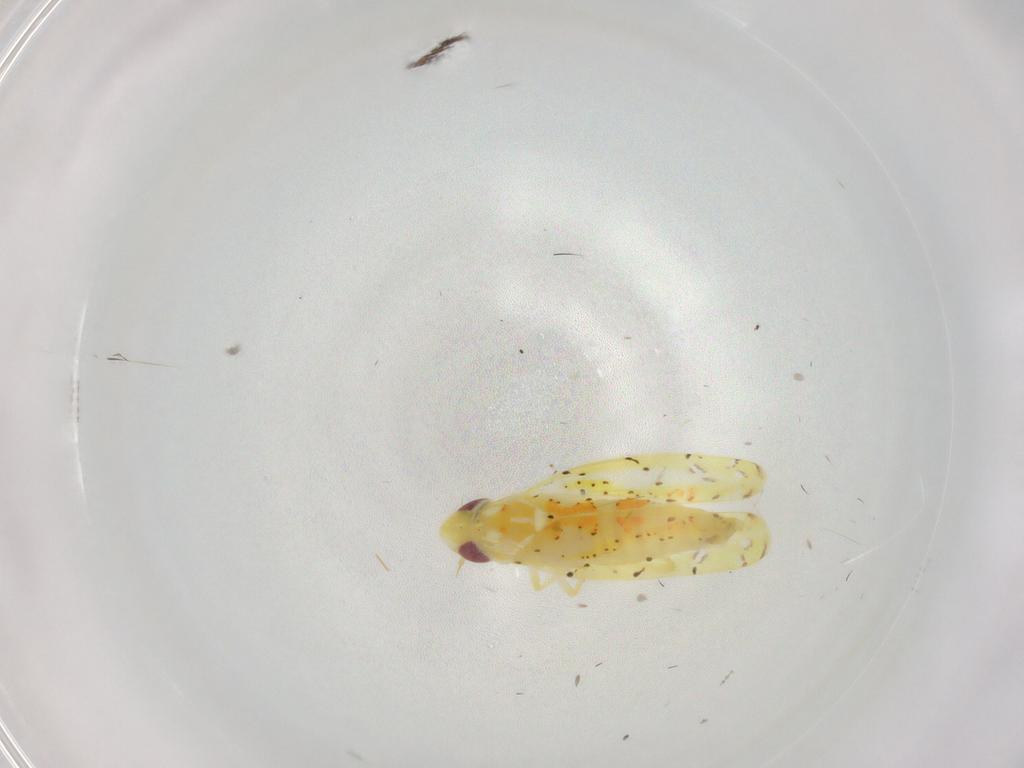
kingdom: Animalia
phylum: Arthropoda
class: Insecta
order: Hemiptera
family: Cicadellidae
